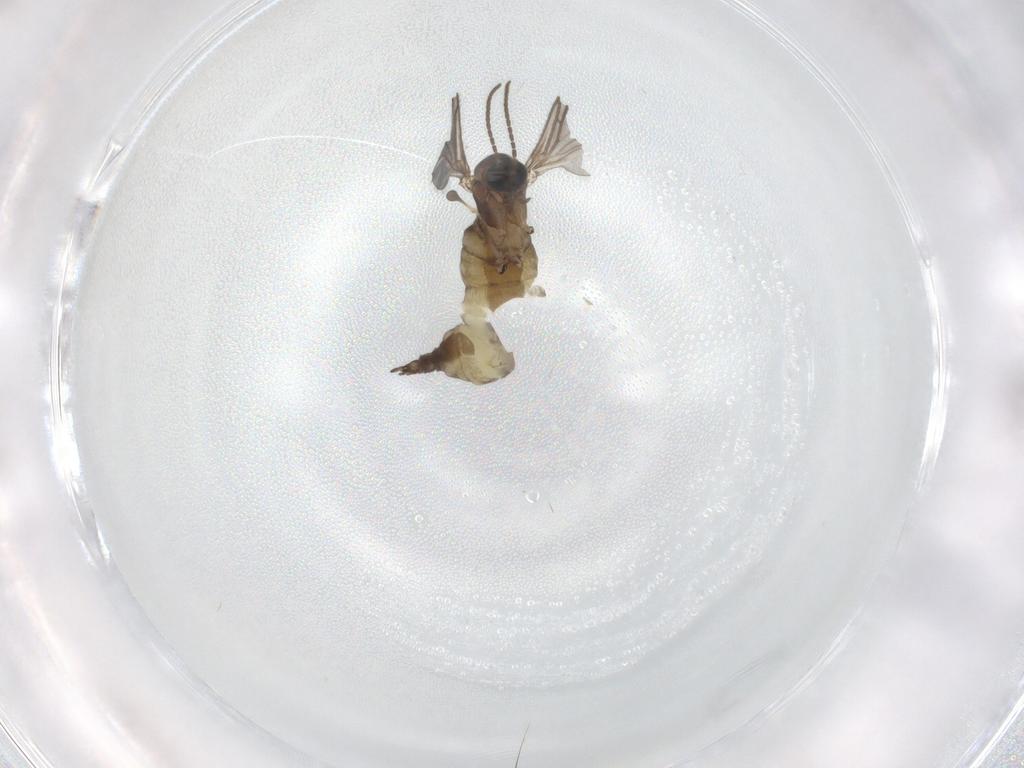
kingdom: Animalia
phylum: Arthropoda
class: Insecta
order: Diptera
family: Sciaridae
